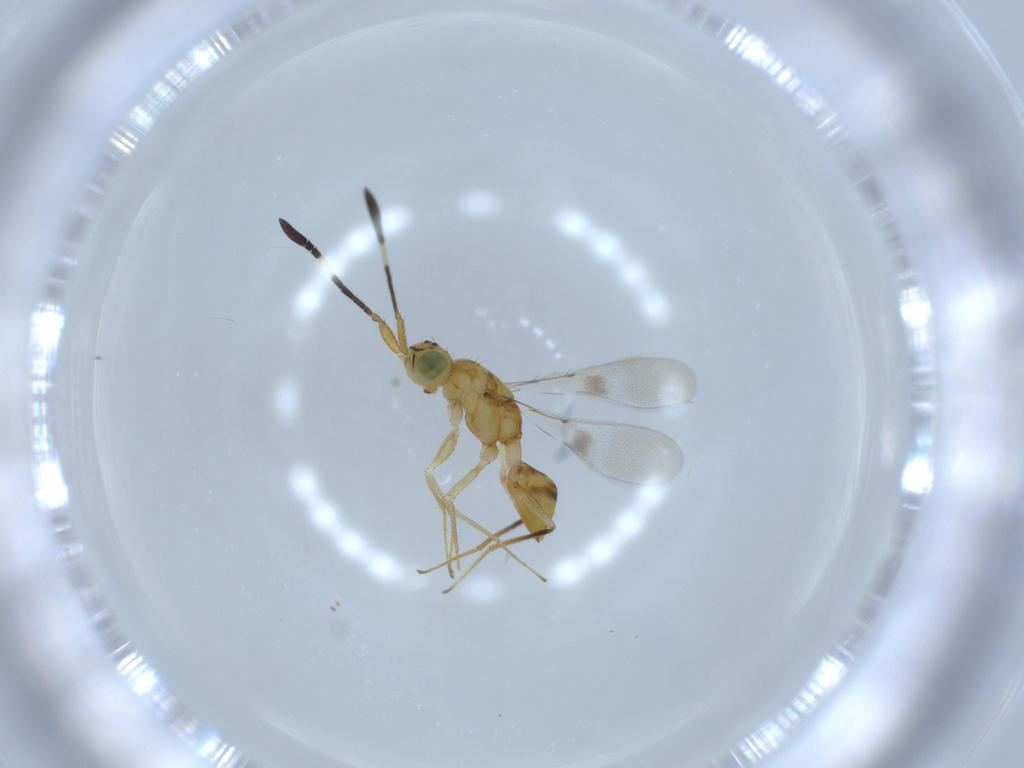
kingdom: Animalia
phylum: Arthropoda
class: Insecta
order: Hymenoptera
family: Mymaridae
